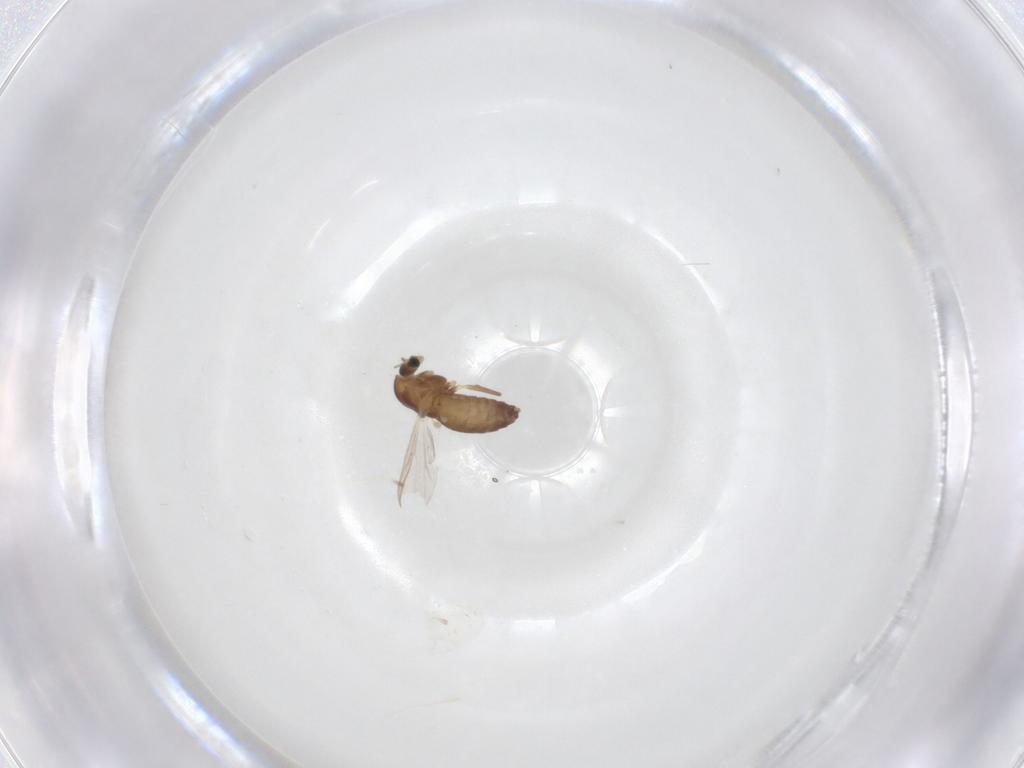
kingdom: Animalia
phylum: Arthropoda
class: Insecta
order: Diptera
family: Chironomidae
